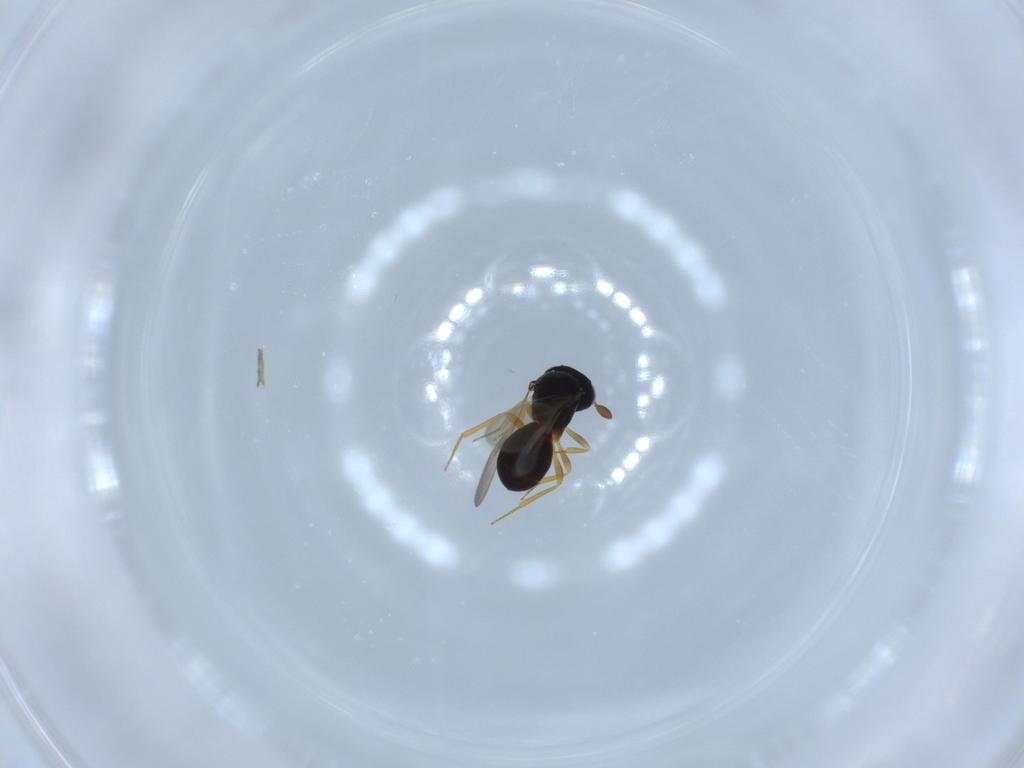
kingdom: Animalia
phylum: Arthropoda
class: Insecta
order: Hymenoptera
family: Scelionidae
